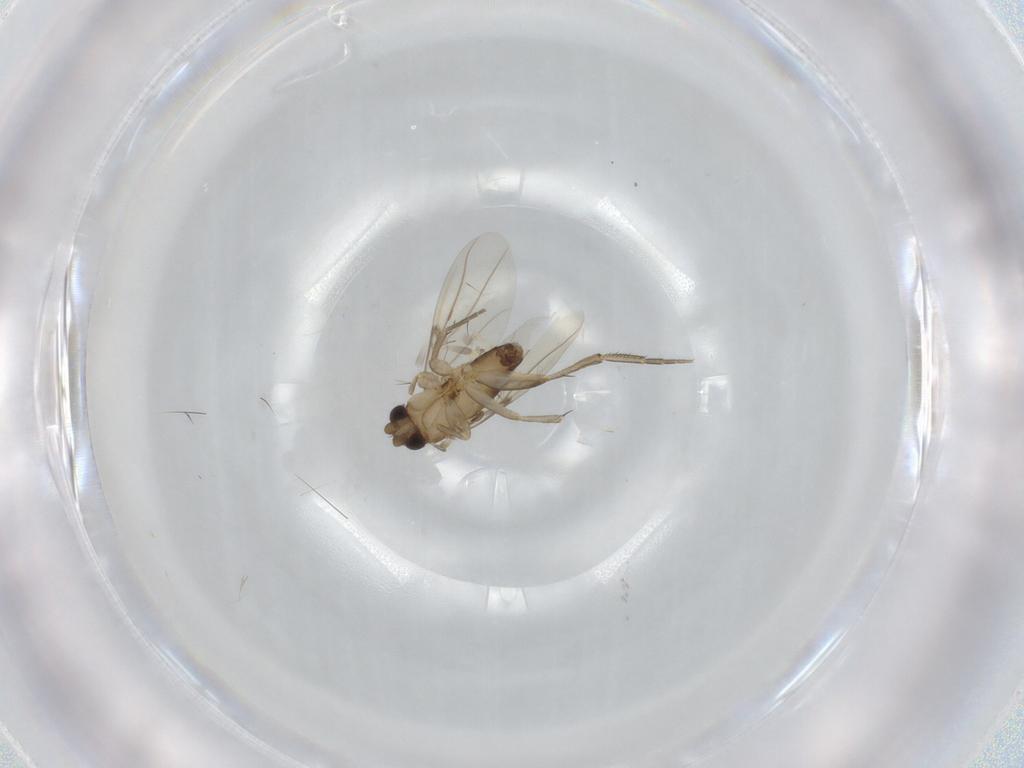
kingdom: Animalia
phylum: Arthropoda
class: Insecta
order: Diptera
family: Phoridae
